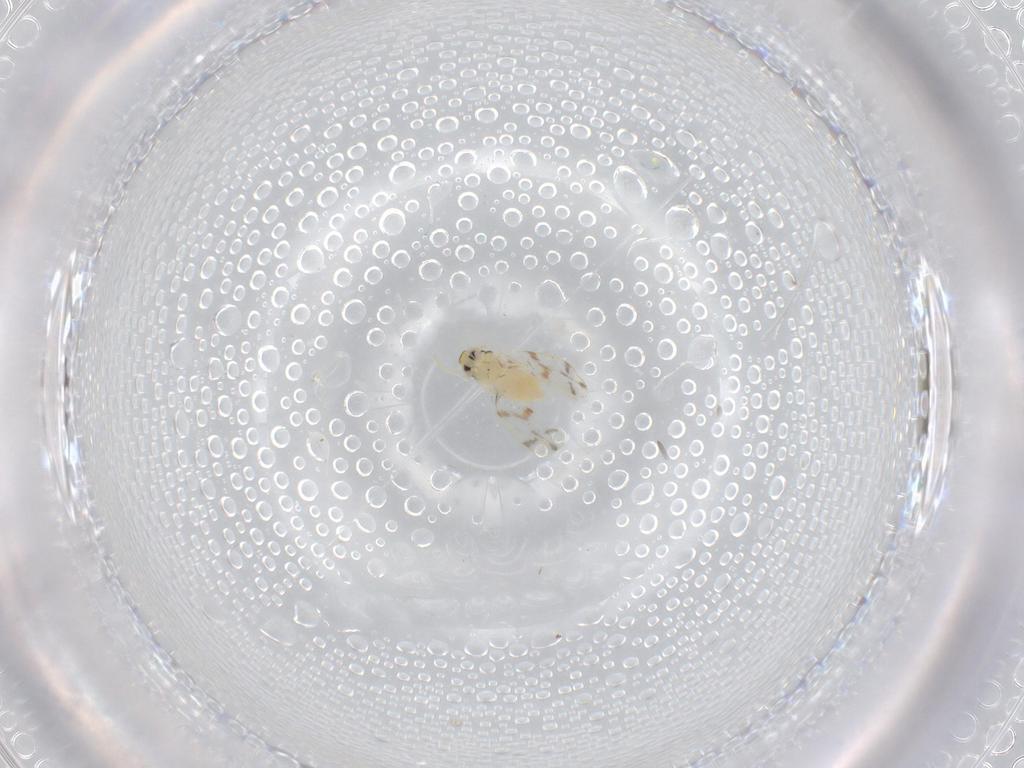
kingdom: Animalia
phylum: Arthropoda
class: Insecta
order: Hemiptera
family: Aleyrodidae
